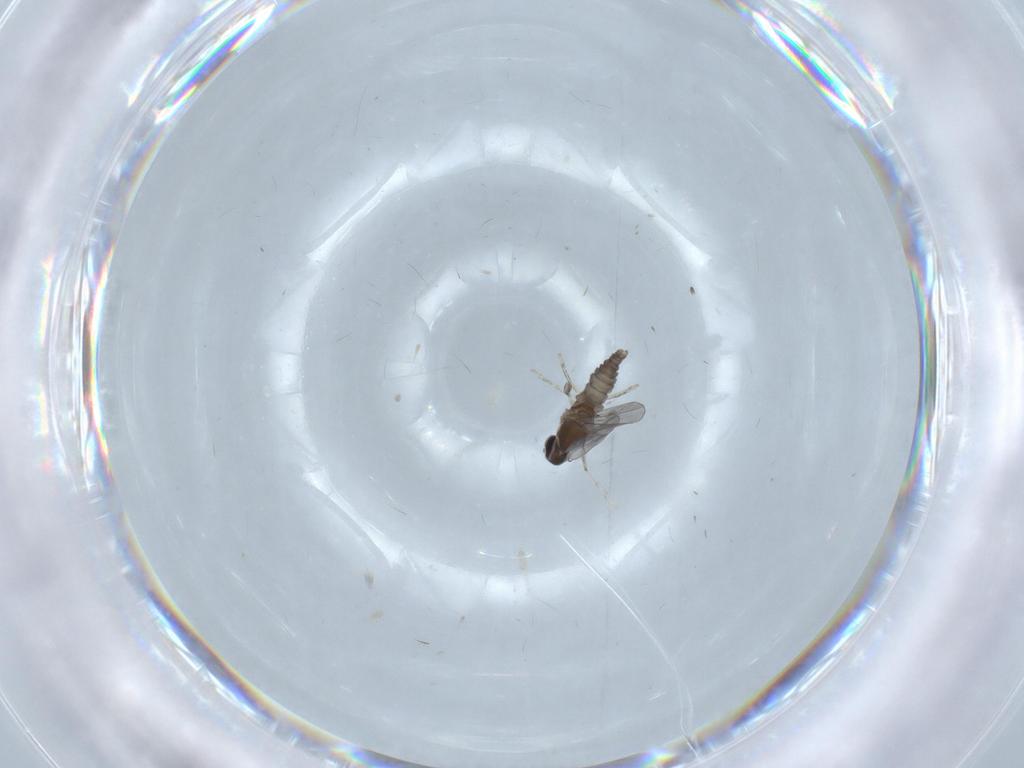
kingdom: Animalia
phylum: Arthropoda
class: Insecta
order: Diptera
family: Cecidomyiidae
